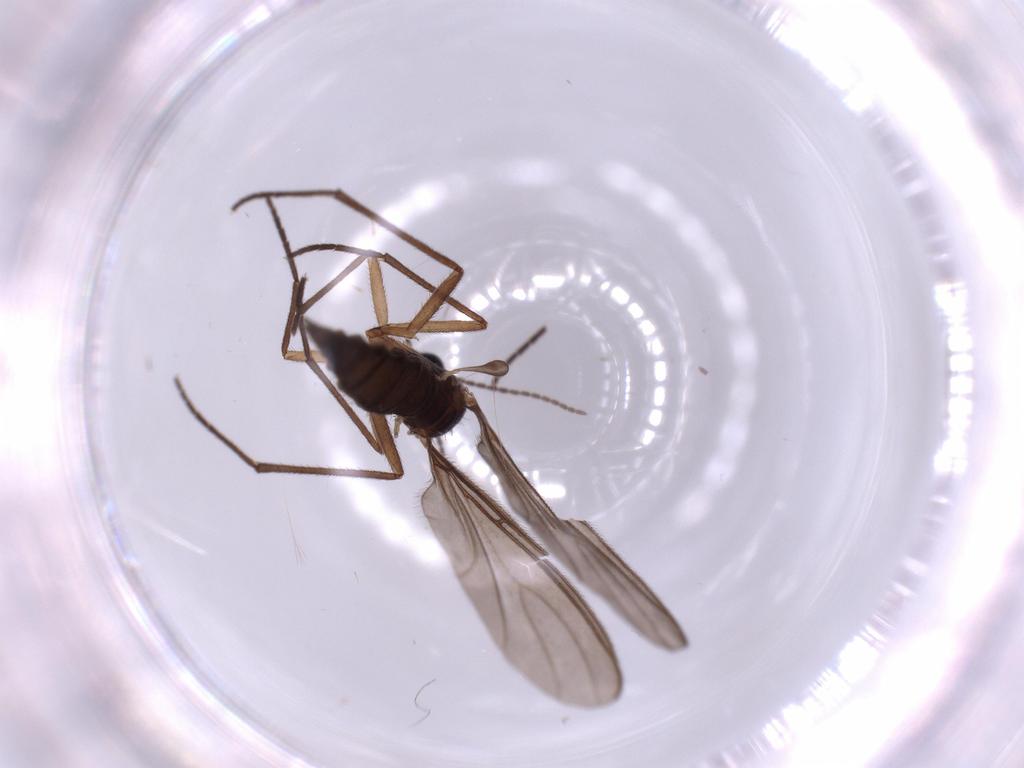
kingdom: Animalia
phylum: Arthropoda
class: Insecta
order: Diptera
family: Sciaridae
